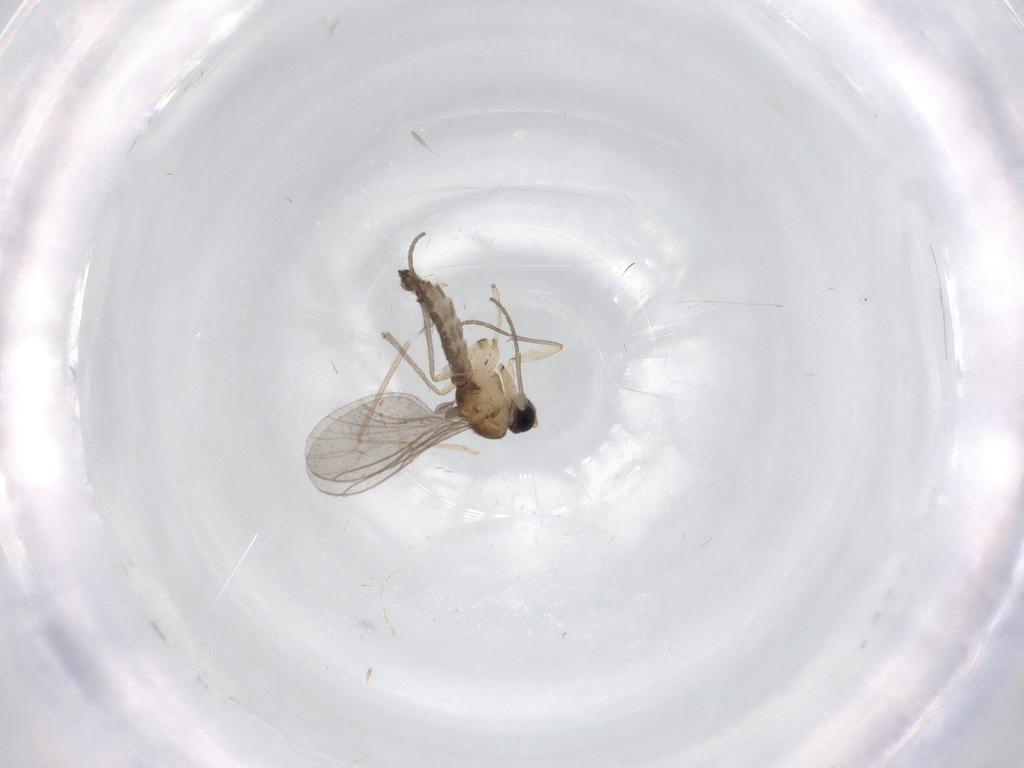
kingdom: Animalia
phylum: Arthropoda
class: Insecta
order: Diptera
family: Sciaridae
